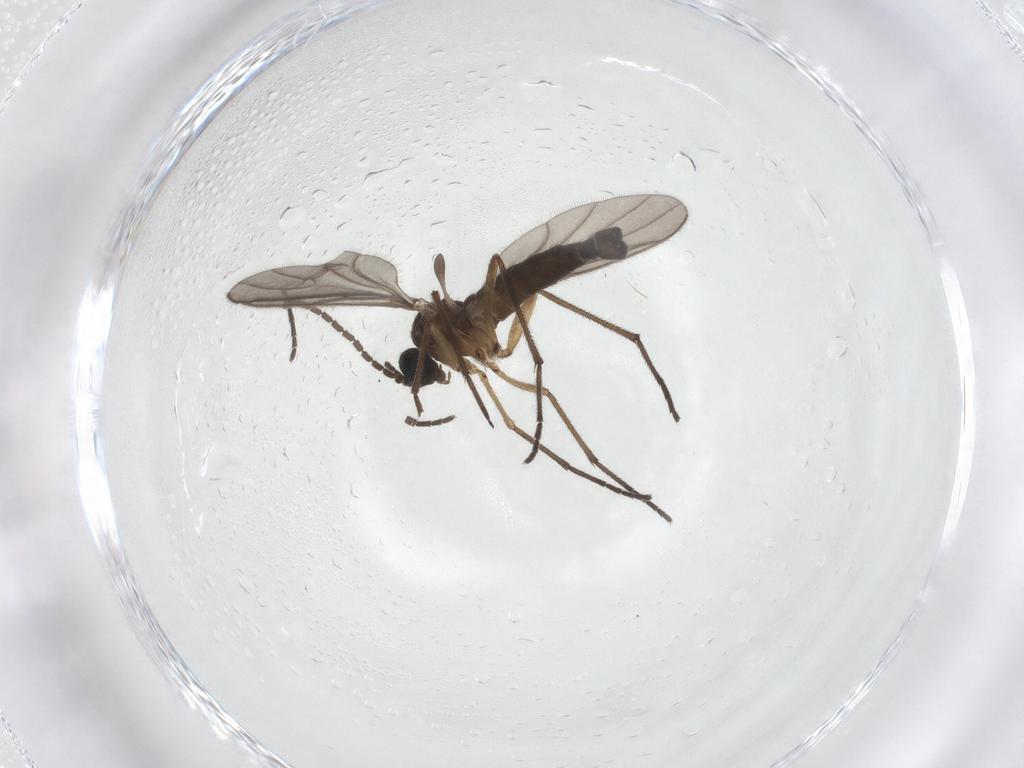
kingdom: Animalia
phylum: Arthropoda
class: Insecta
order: Diptera
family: Sciaridae
